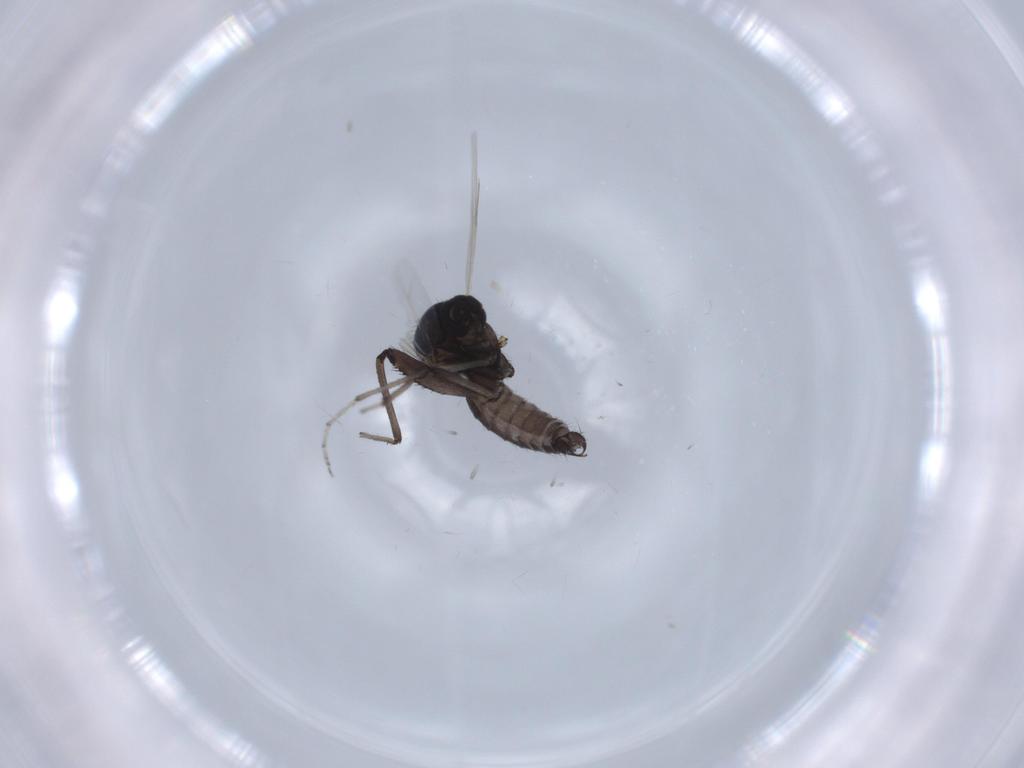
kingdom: Animalia
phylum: Arthropoda
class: Insecta
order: Diptera
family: Ceratopogonidae
